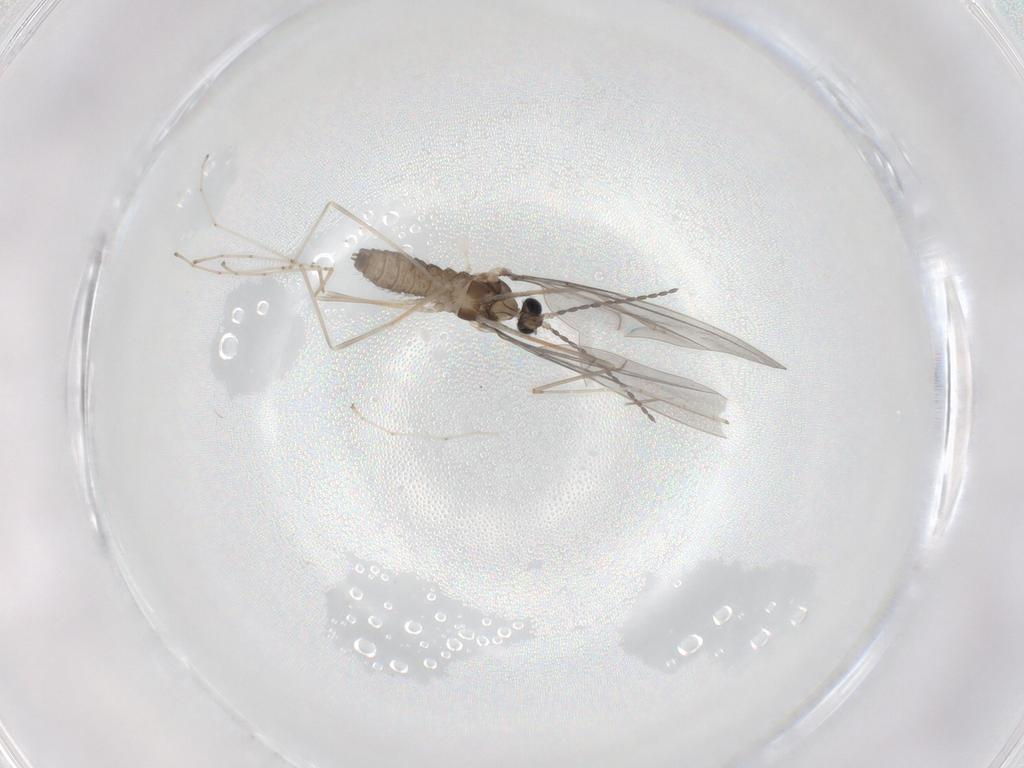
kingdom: Animalia
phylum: Arthropoda
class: Insecta
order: Diptera
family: Cecidomyiidae
